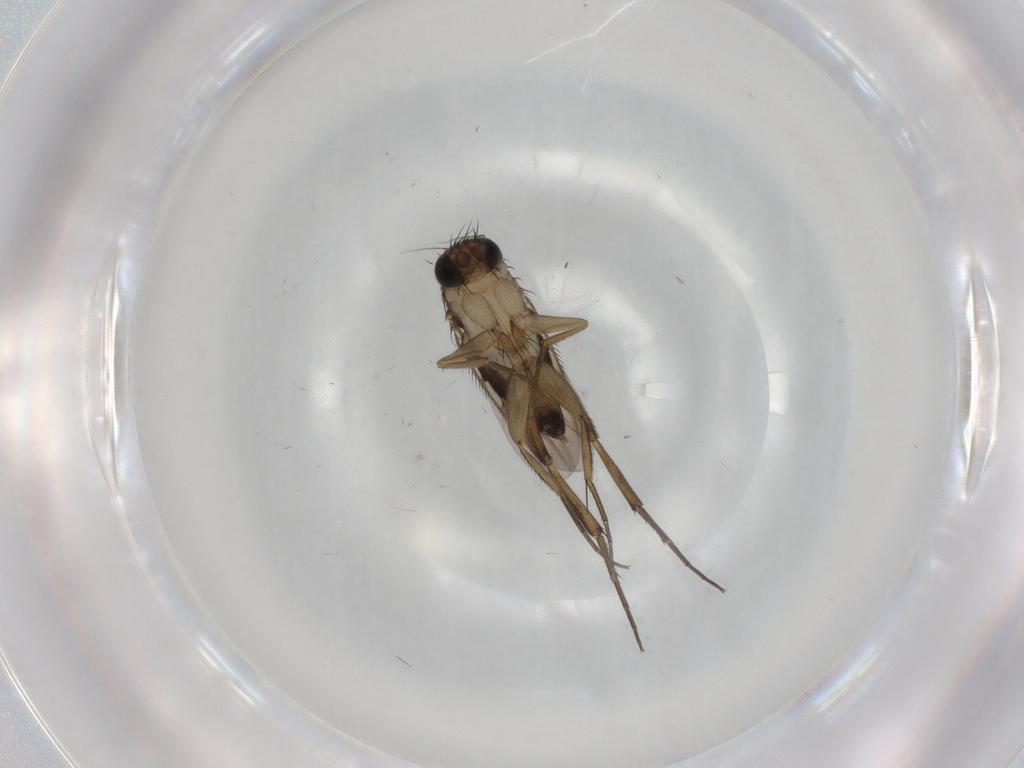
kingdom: Animalia
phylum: Arthropoda
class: Insecta
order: Diptera
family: Phoridae
